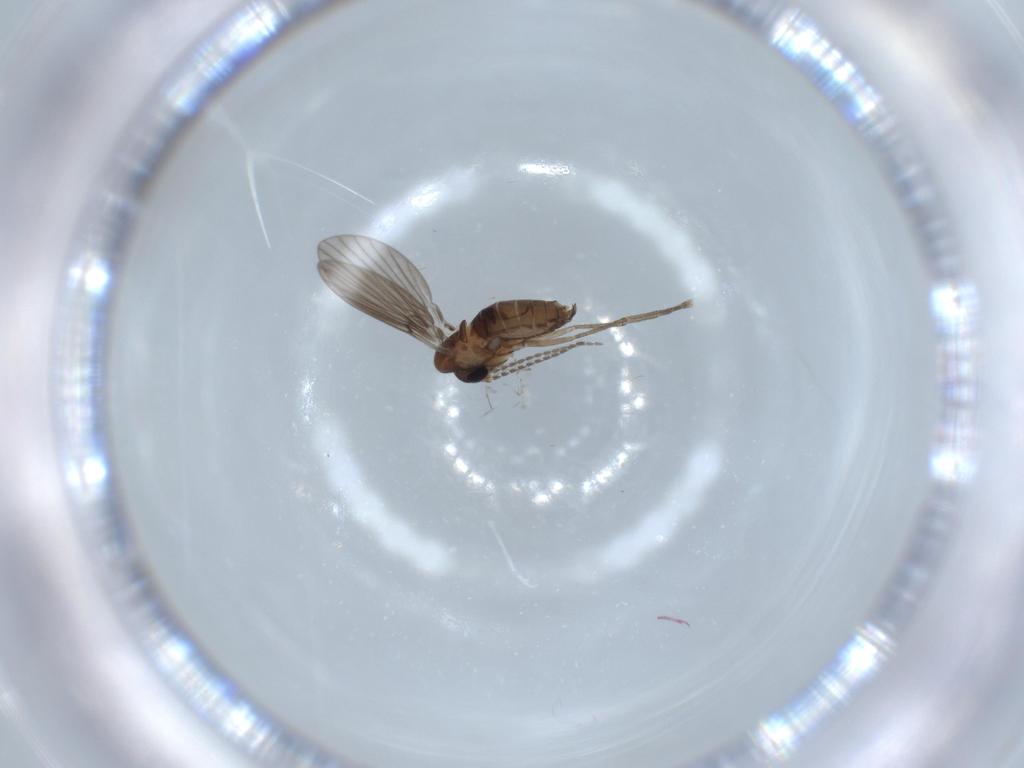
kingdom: Animalia
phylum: Arthropoda
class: Insecta
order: Diptera
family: Psychodidae
